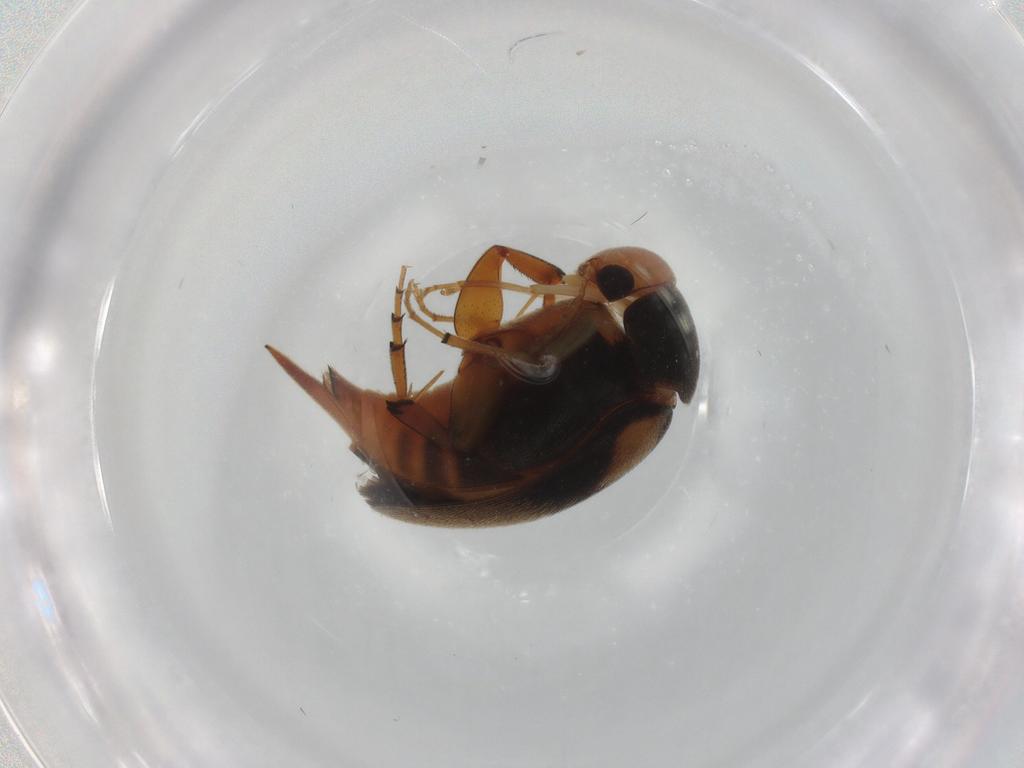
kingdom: Animalia
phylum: Arthropoda
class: Insecta
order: Coleoptera
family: Mordellidae
